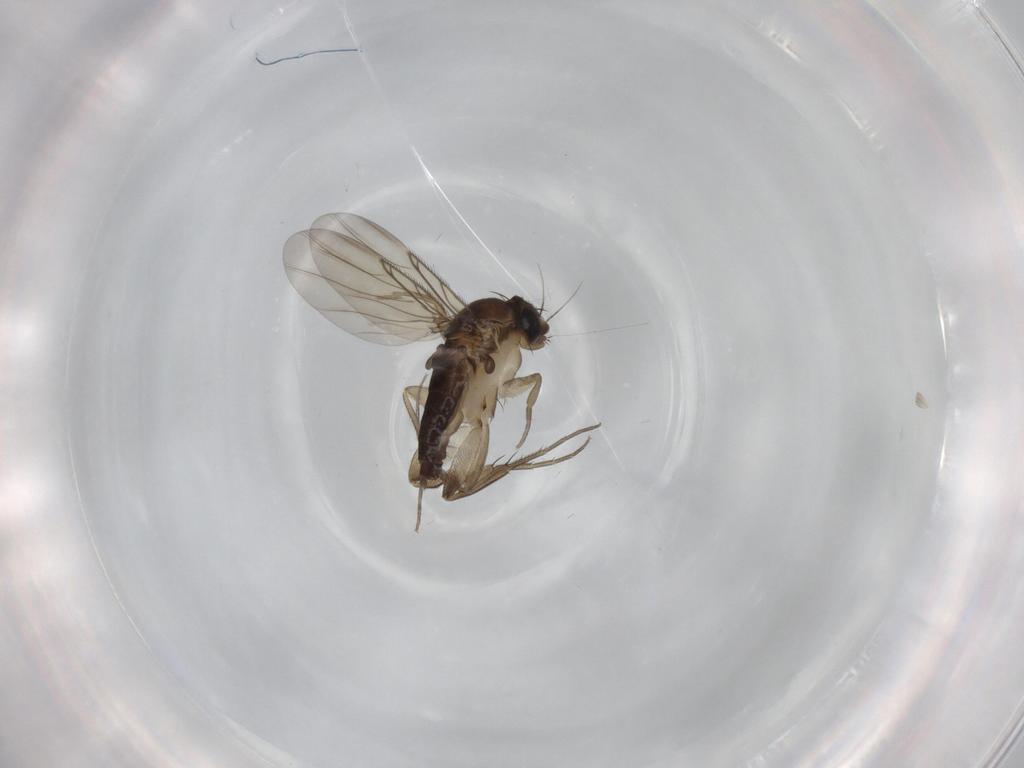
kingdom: Animalia
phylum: Arthropoda
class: Insecta
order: Diptera
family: Phoridae
